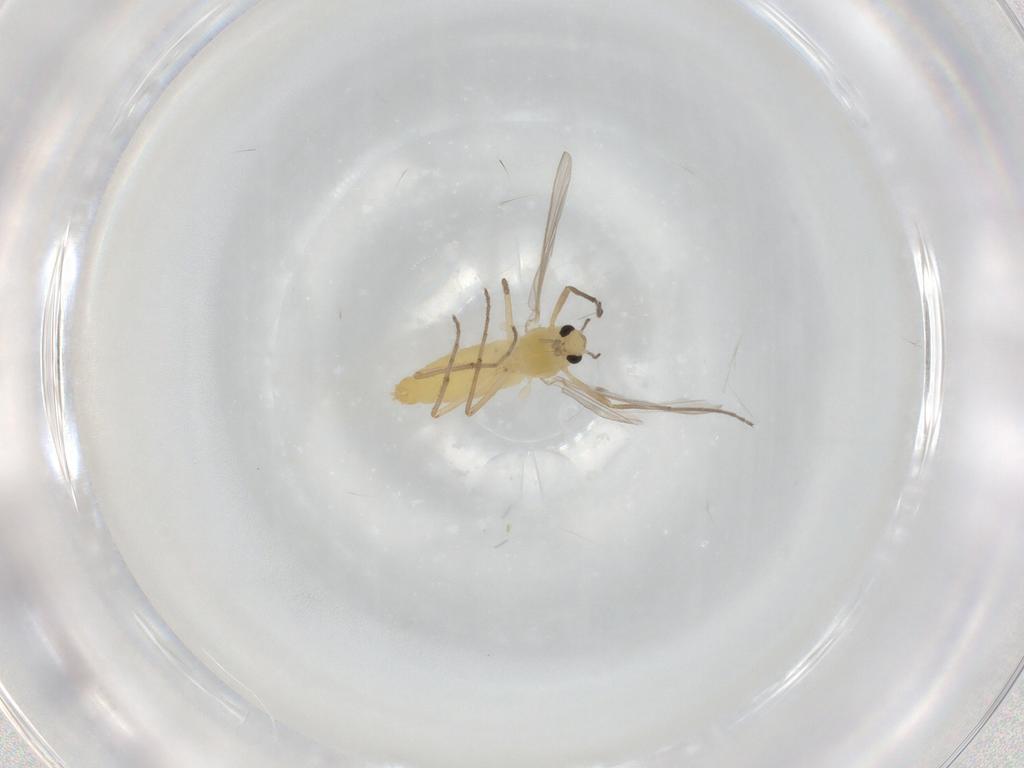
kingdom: Animalia
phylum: Arthropoda
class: Insecta
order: Diptera
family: Chironomidae
